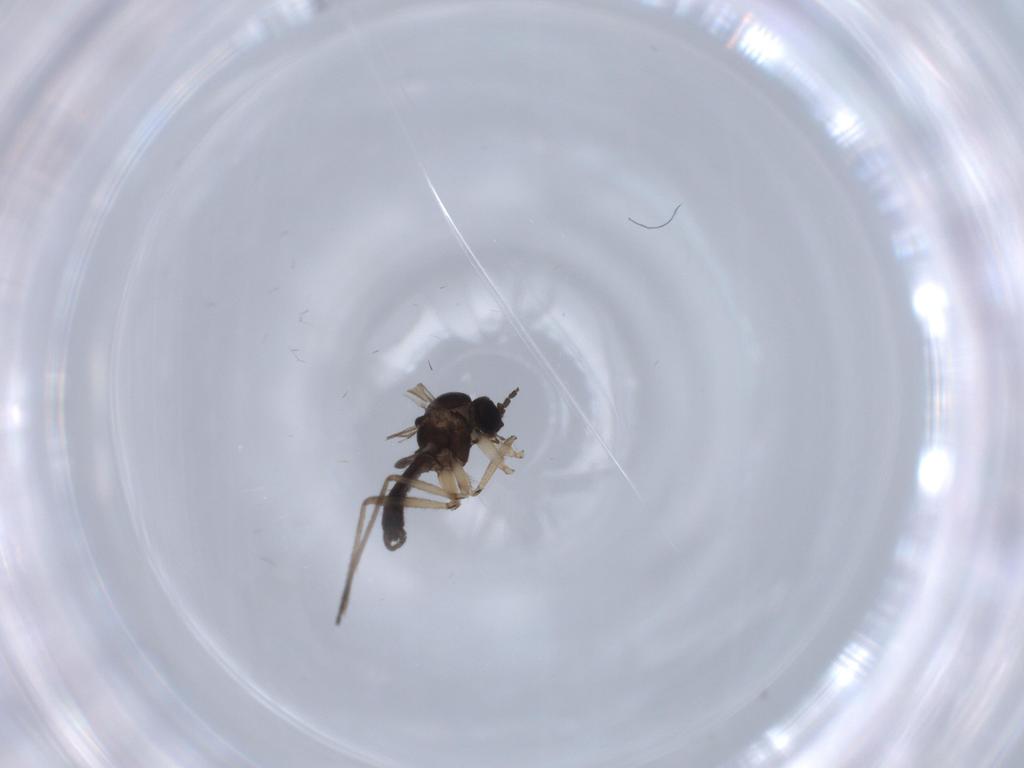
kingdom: Animalia
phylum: Arthropoda
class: Insecta
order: Diptera
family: Sciaridae
